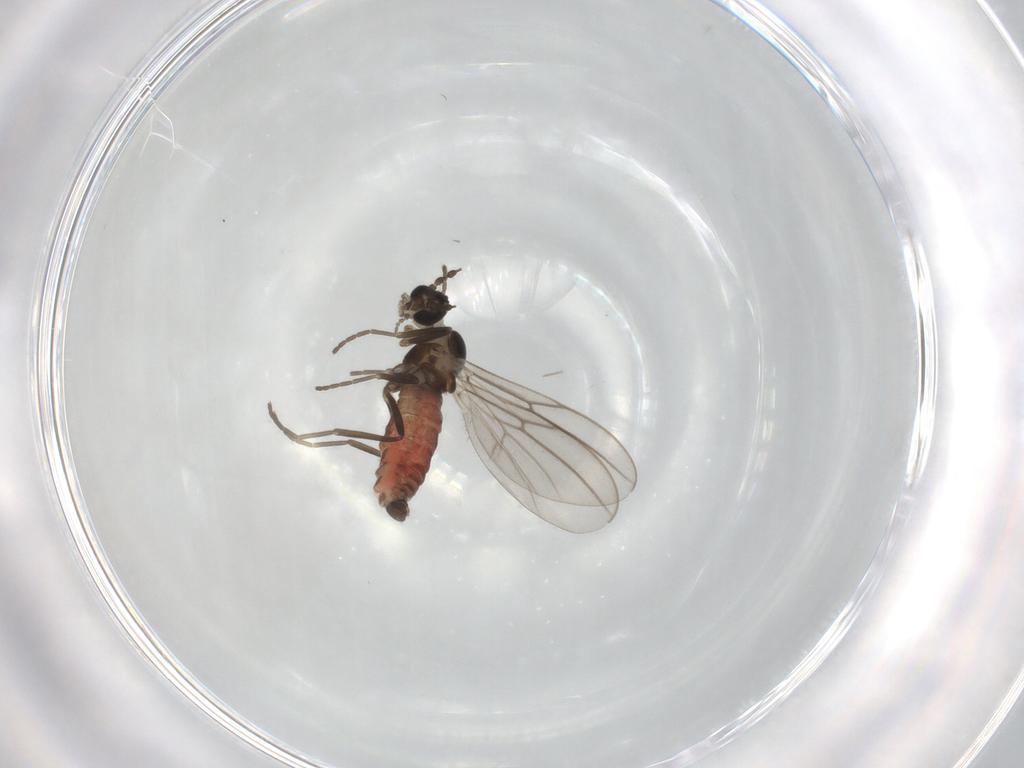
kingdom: Animalia
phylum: Arthropoda
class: Insecta
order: Diptera
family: Chironomidae
